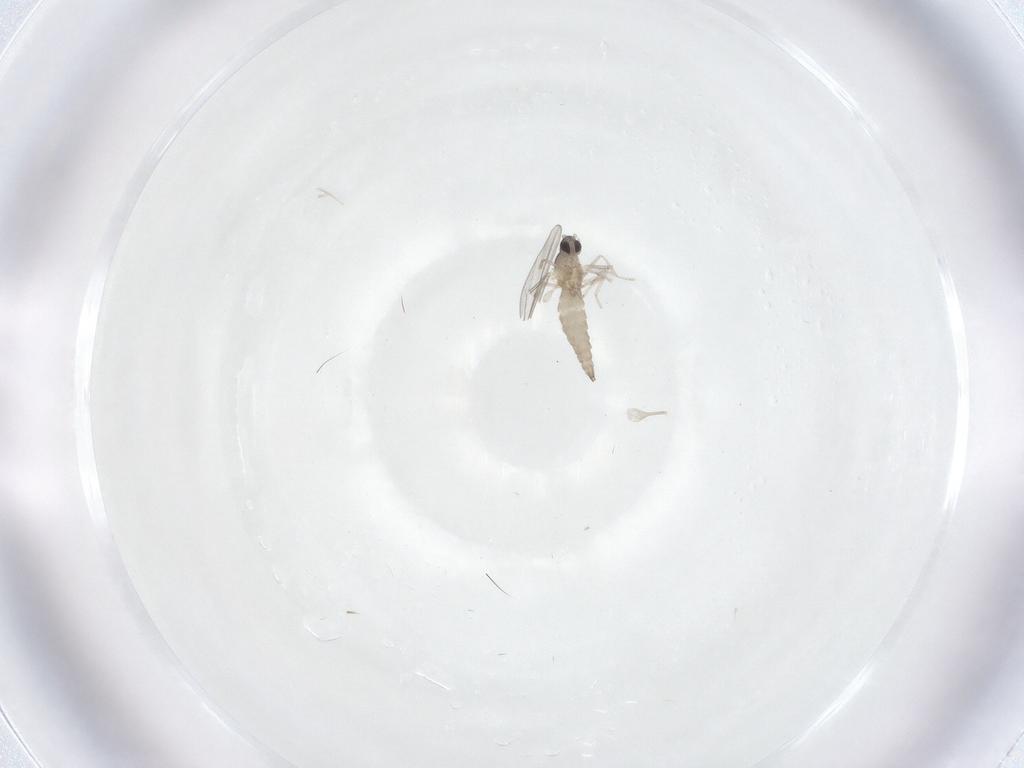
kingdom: Animalia
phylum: Arthropoda
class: Insecta
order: Diptera
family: Cecidomyiidae
